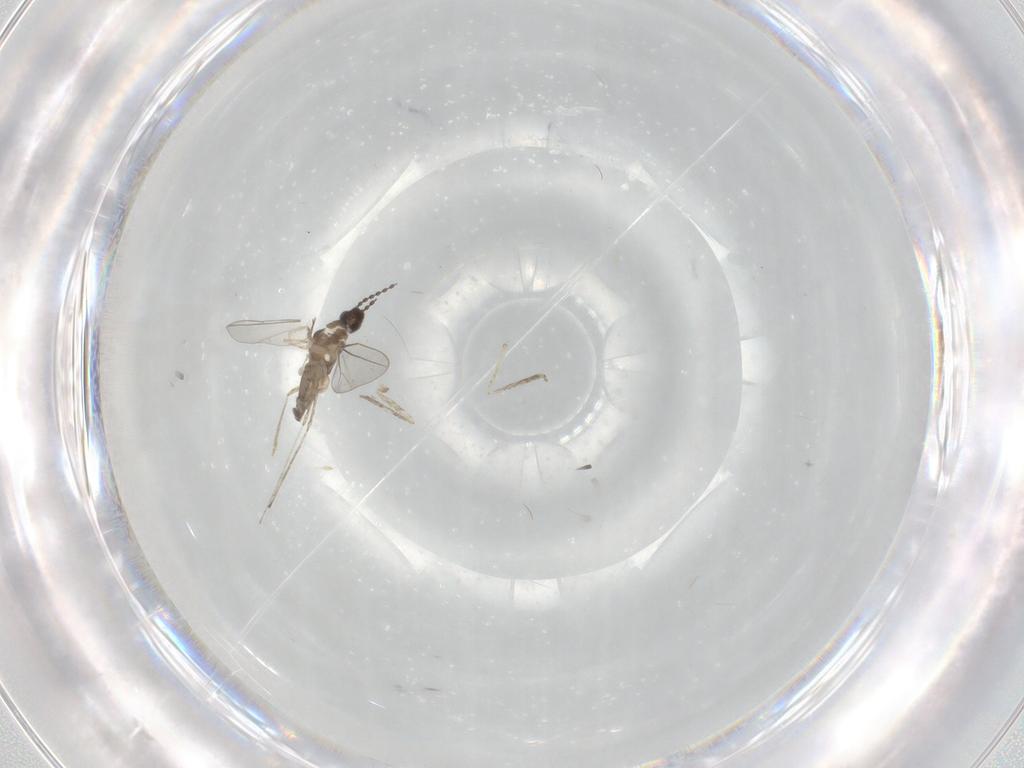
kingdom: Animalia
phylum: Arthropoda
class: Insecta
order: Diptera
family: Cecidomyiidae
